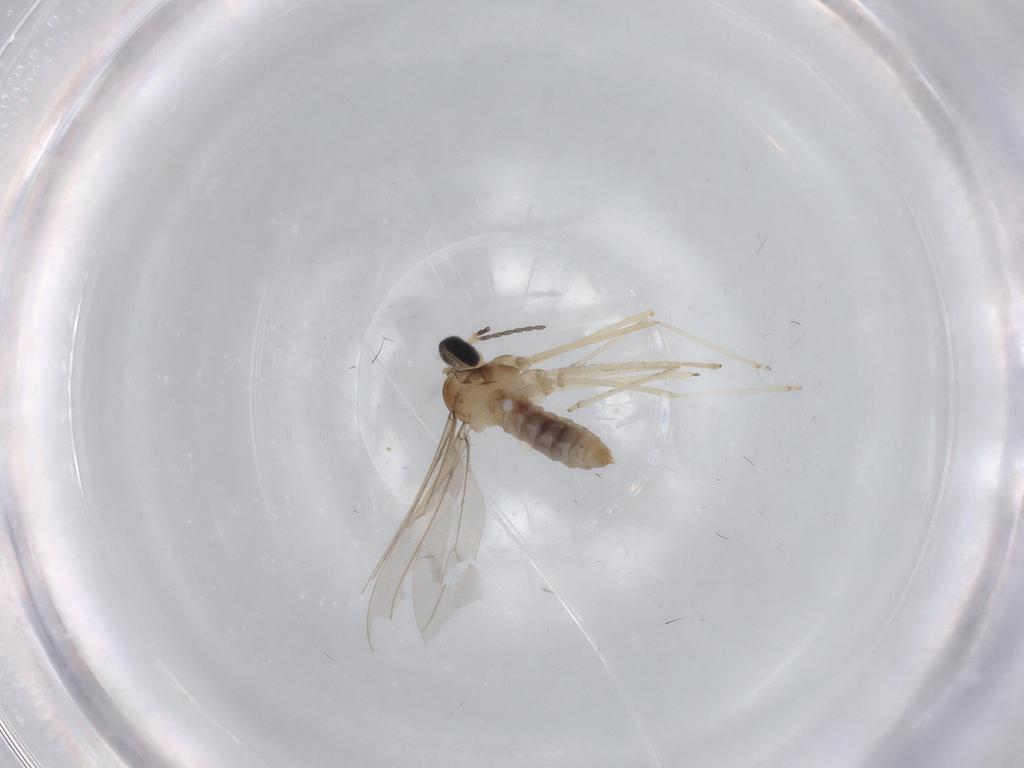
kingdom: Animalia
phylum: Arthropoda
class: Insecta
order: Diptera
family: Cecidomyiidae
